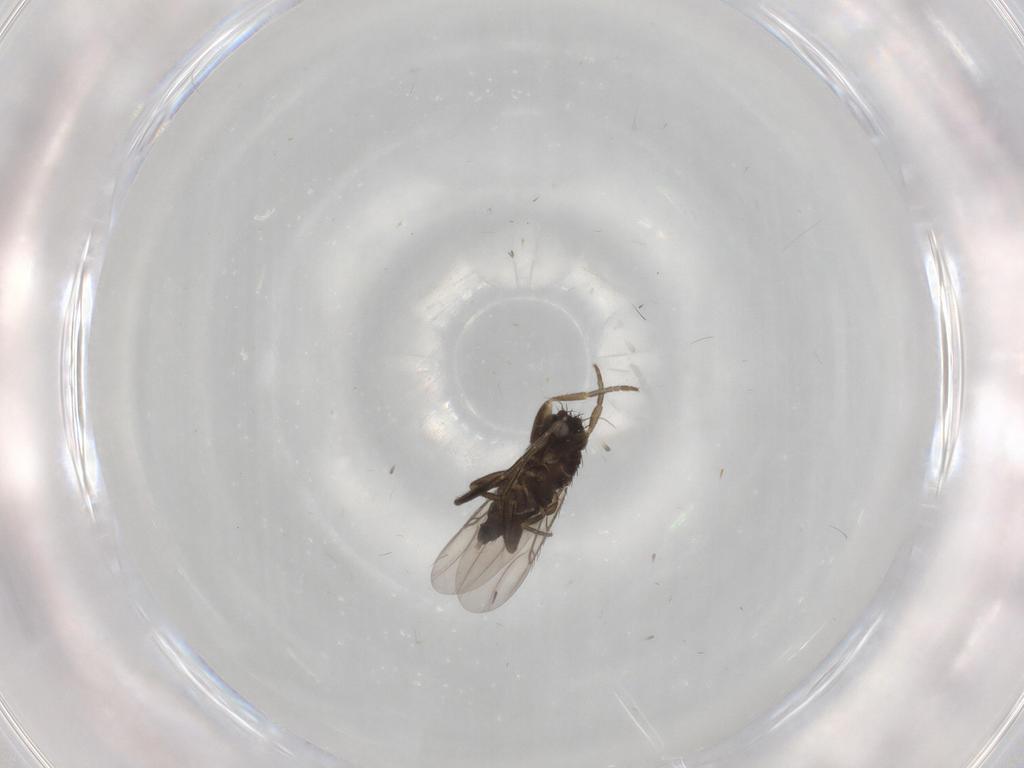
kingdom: Animalia
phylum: Arthropoda
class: Insecta
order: Diptera
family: Phoridae
